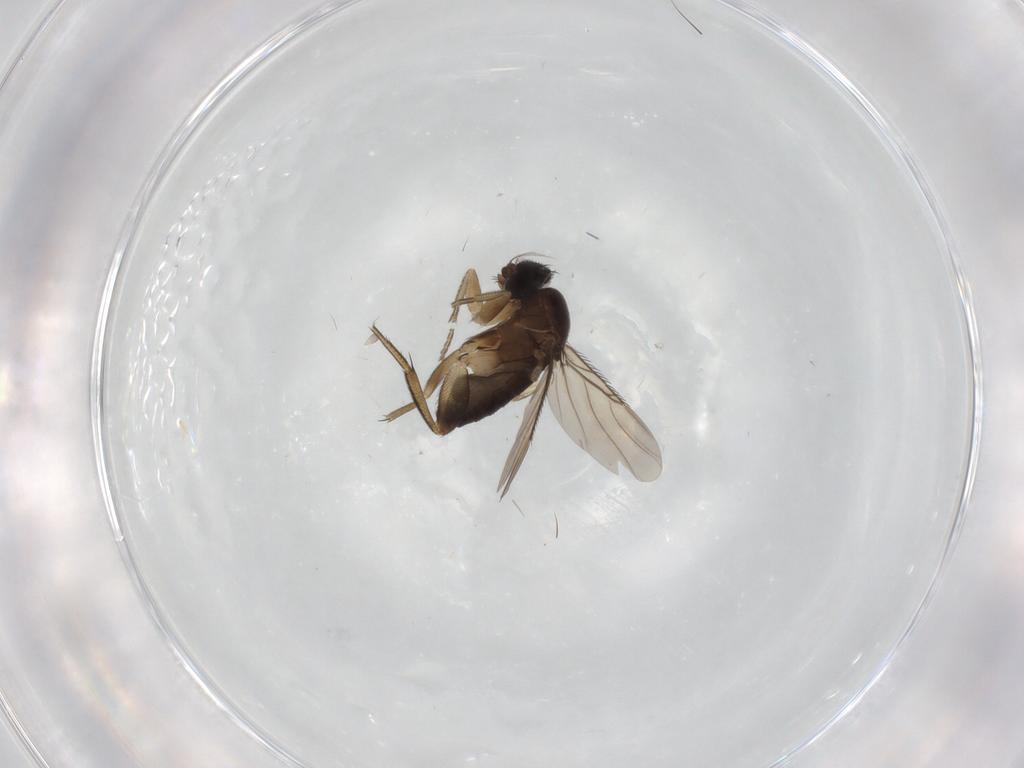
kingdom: Animalia
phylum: Arthropoda
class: Insecta
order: Diptera
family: Phoridae
